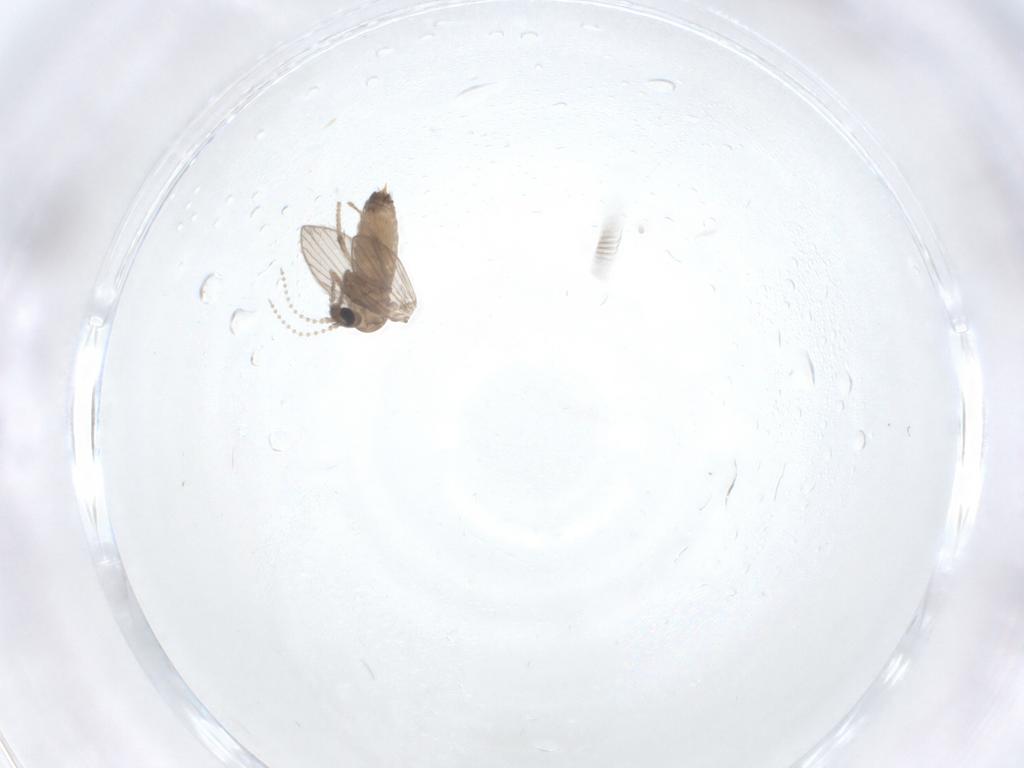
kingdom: Animalia
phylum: Arthropoda
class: Insecta
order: Diptera
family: Psychodidae
